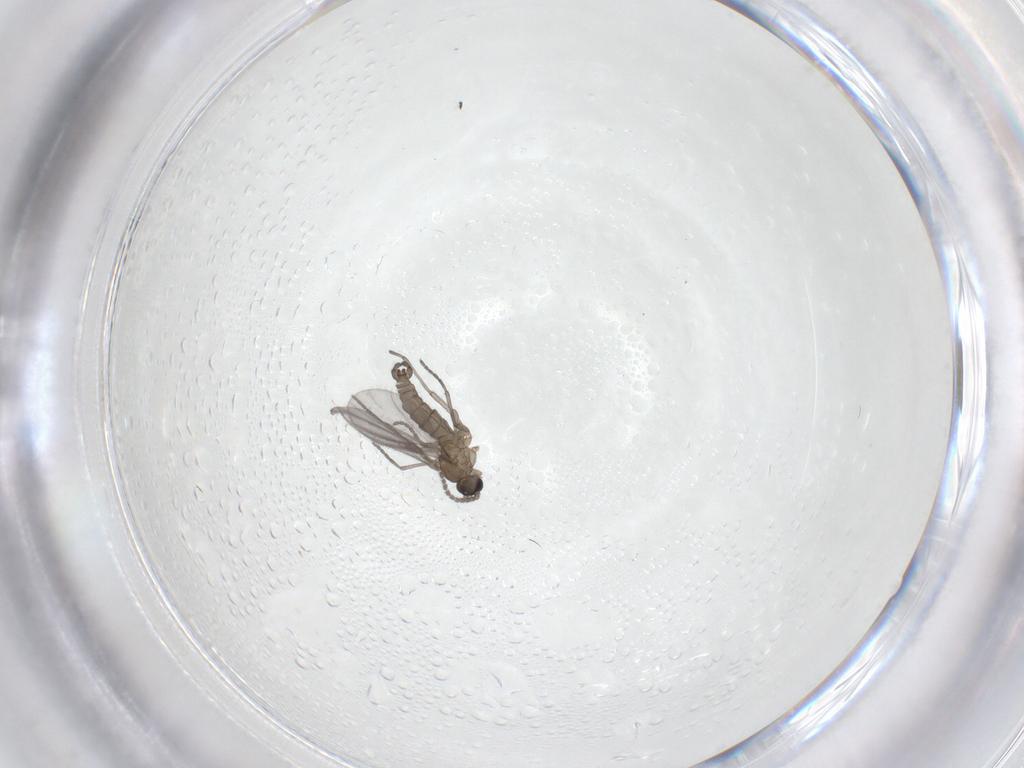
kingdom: Animalia
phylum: Arthropoda
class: Insecta
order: Diptera
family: Sciaridae
